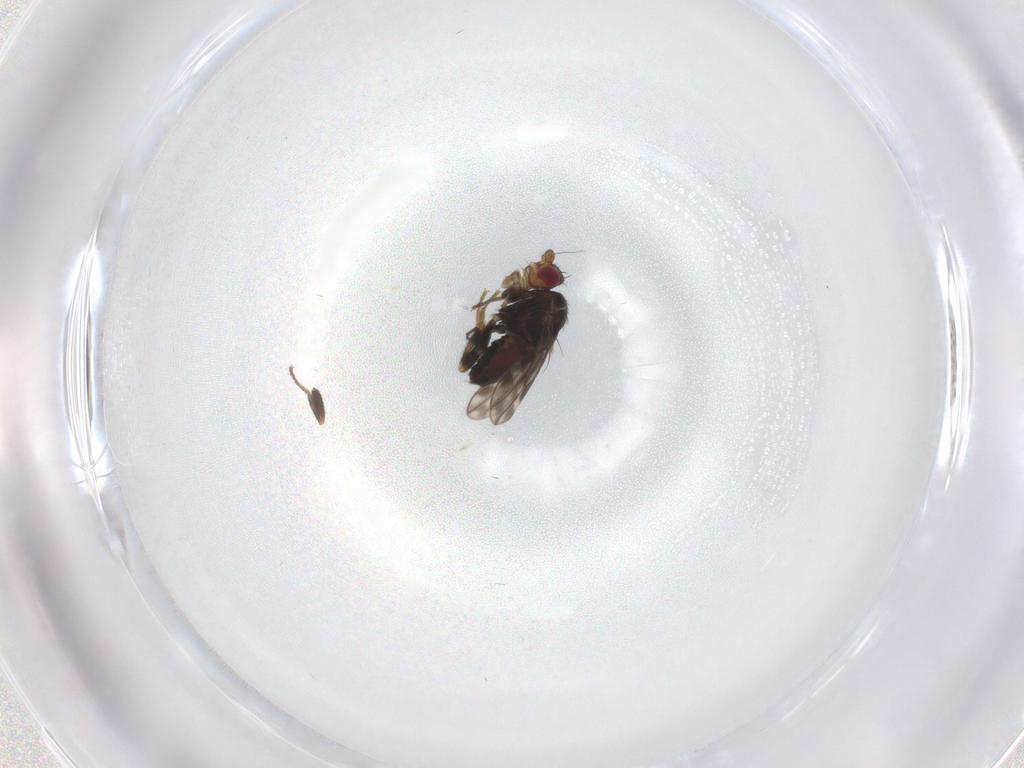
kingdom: Animalia
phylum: Arthropoda
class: Insecta
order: Diptera
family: Sphaeroceridae
